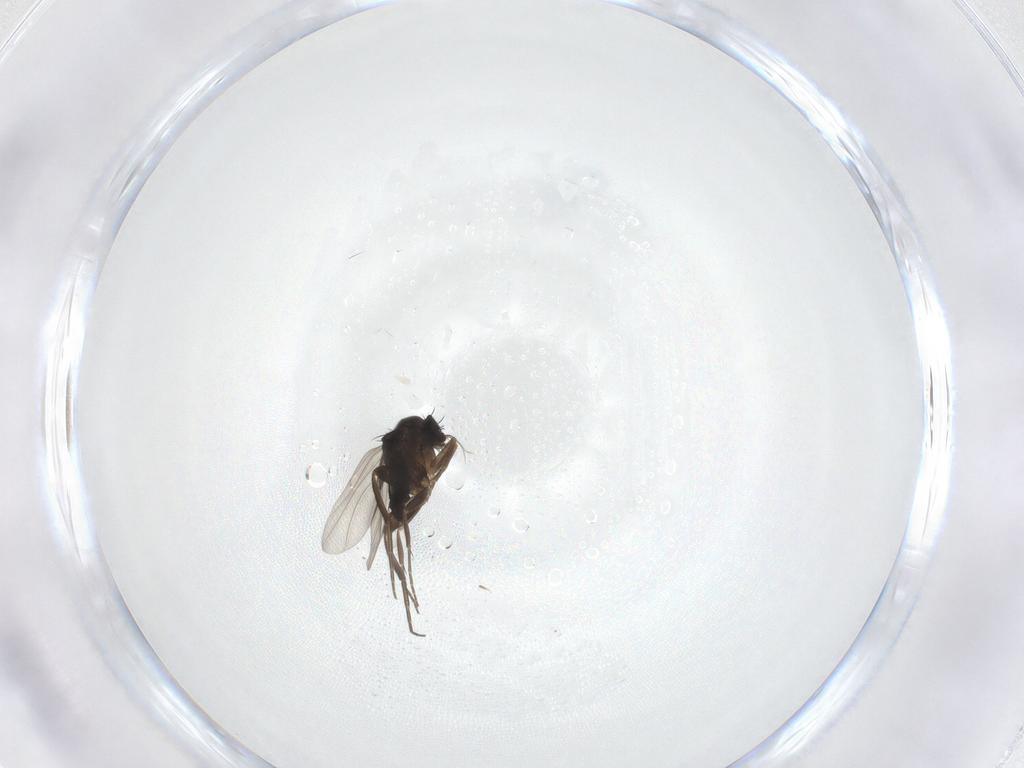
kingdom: Animalia
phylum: Arthropoda
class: Insecta
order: Diptera
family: Phoridae
